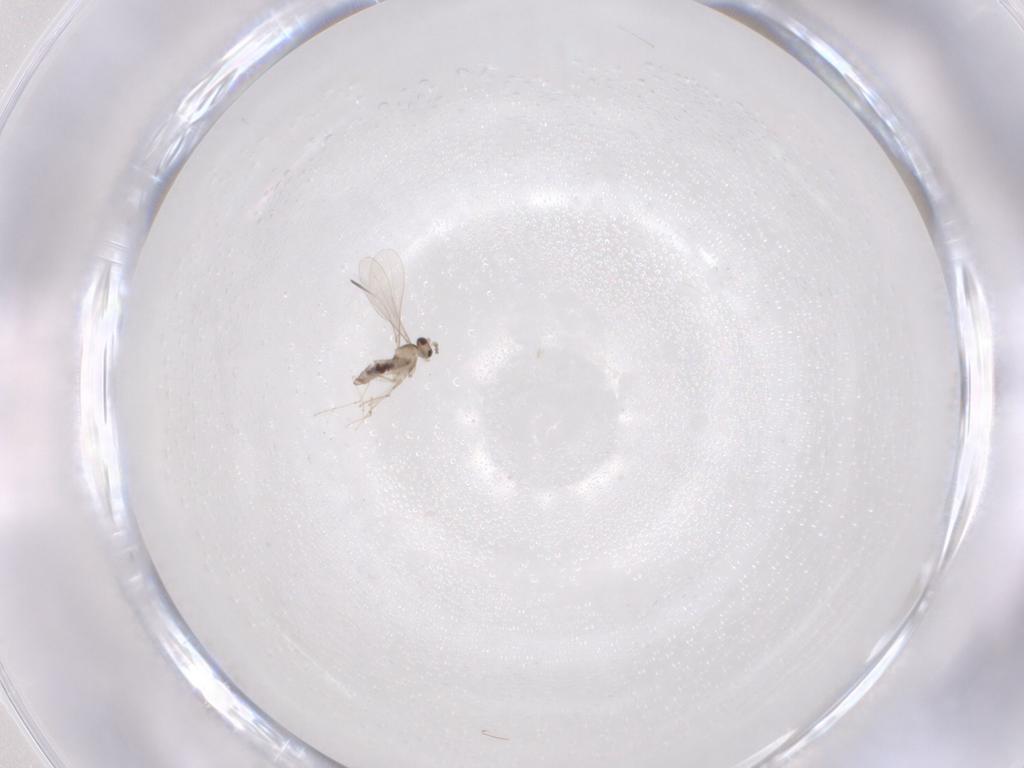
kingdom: Animalia
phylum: Arthropoda
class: Insecta
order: Diptera
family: Cecidomyiidae
